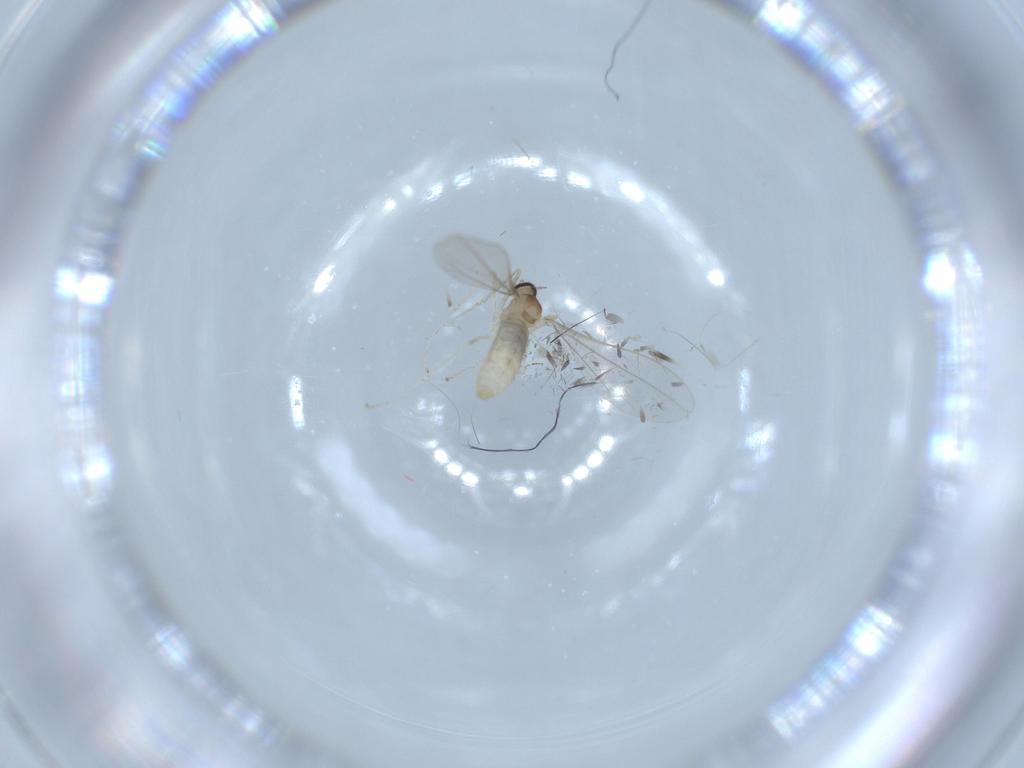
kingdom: Animalia
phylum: Arthropoda
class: Insecta
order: Diptera
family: Cecidomyiidae
